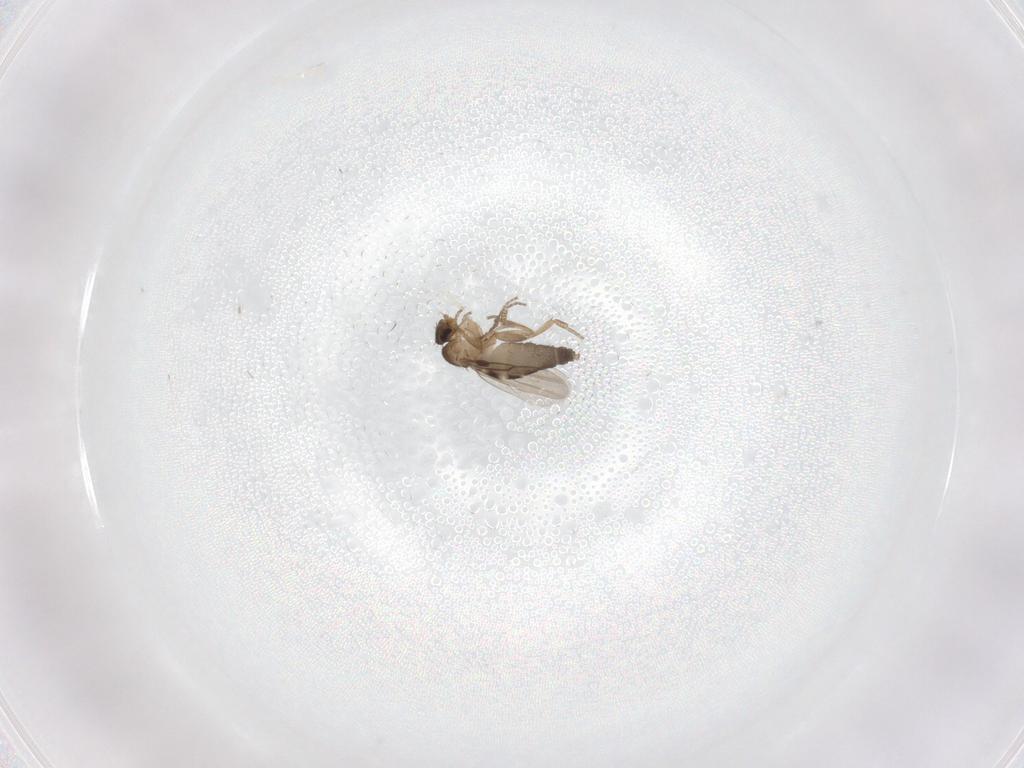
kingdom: Animalia
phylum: Arthropoda
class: Insecta
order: Diptera
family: Cecidomyiidae
